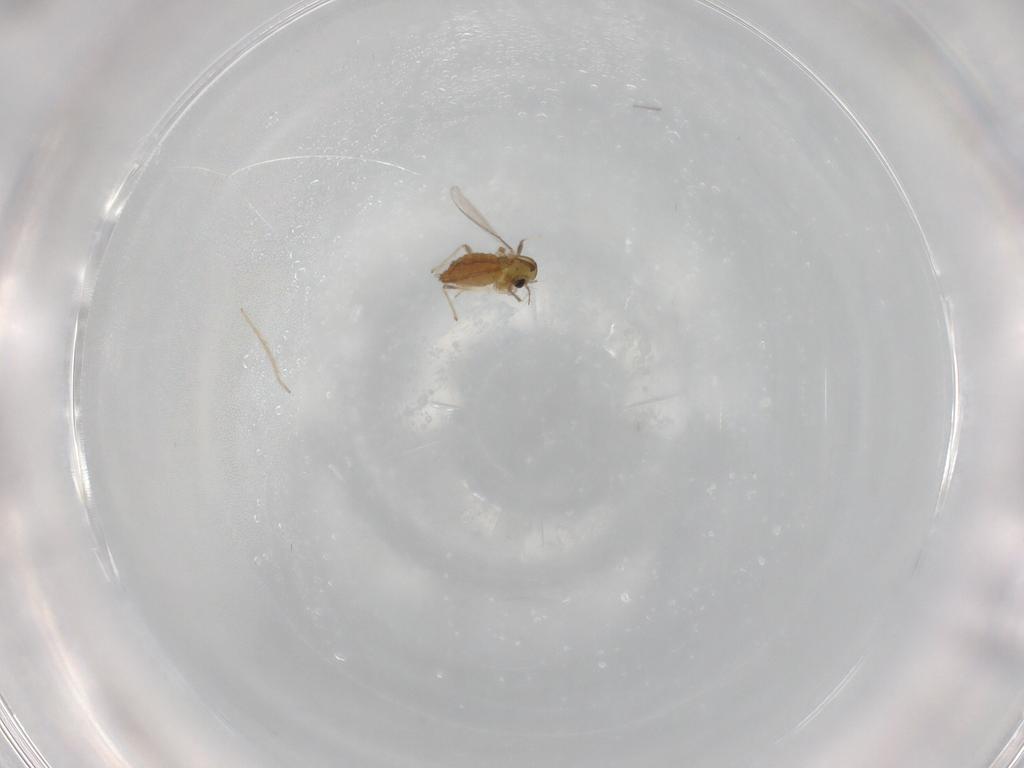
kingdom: Animalia
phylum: Arthropoda
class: Insecta
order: Diptera
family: Chironomidae
